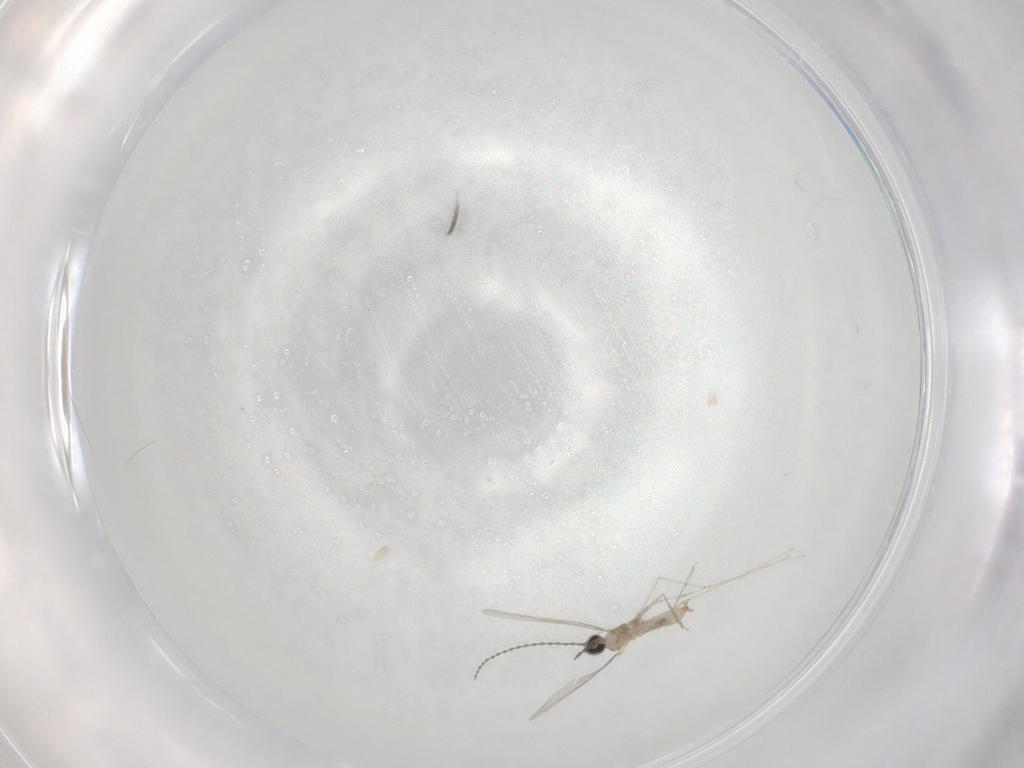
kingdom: Animalia
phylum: Arthropoda
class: Insecta
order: Diptera
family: Cecidomyiidae
